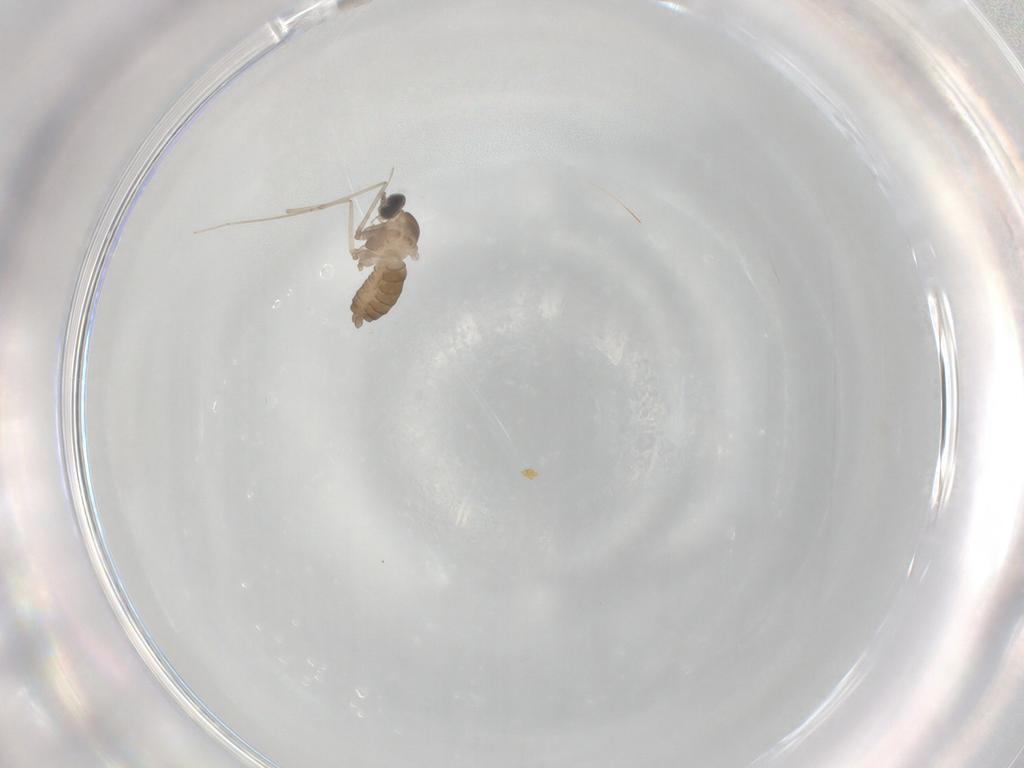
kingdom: Animalia
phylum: Arthropoda
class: Insecta
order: Diptera
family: Cecidomyiidae
